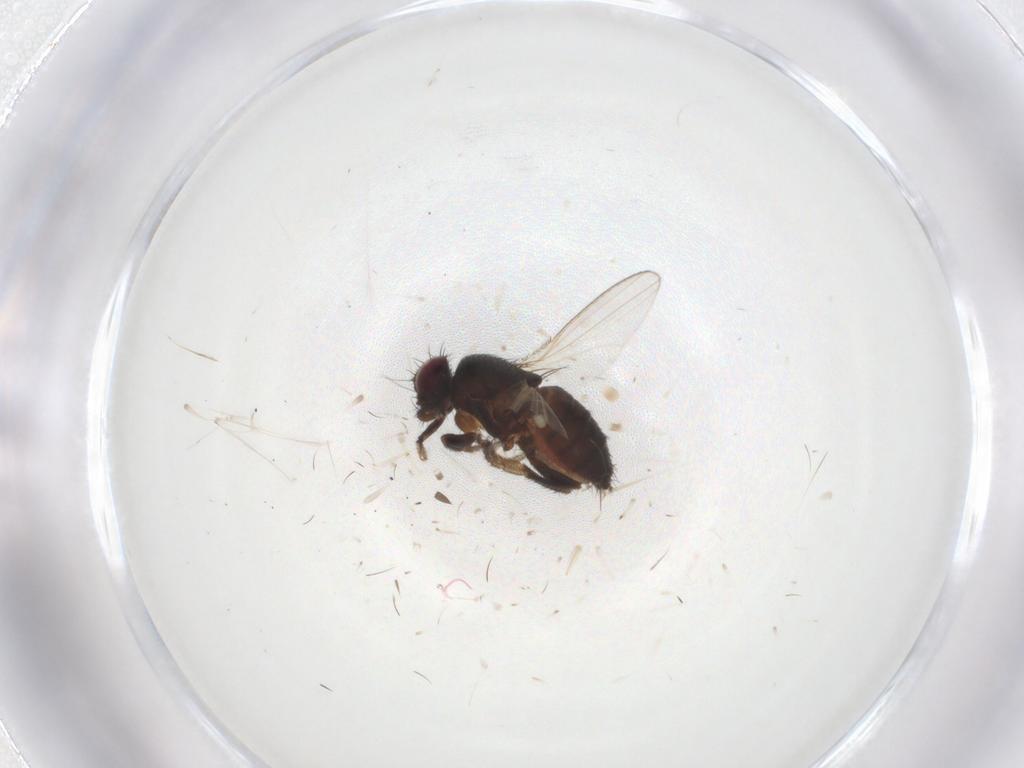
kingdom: Animalia
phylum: Arthropoda
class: Insecta
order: Diptera
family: Milichiidae
